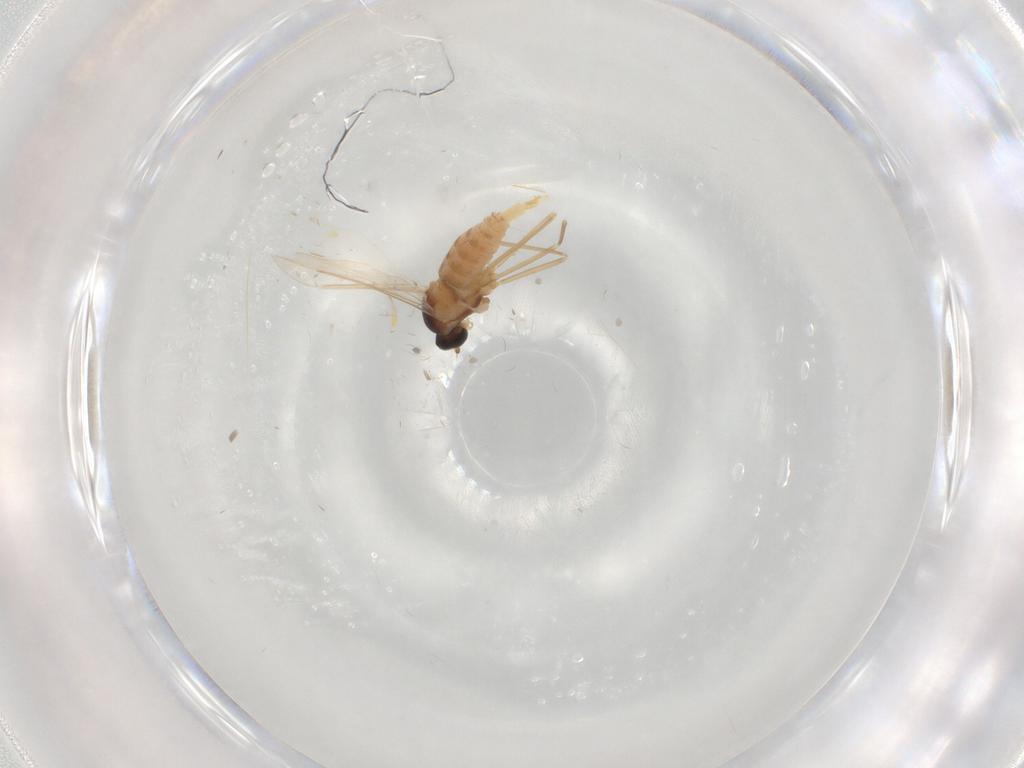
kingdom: Animalia
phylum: Arthropoda
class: Insecta
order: Diptera
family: Cecidomyiidae
